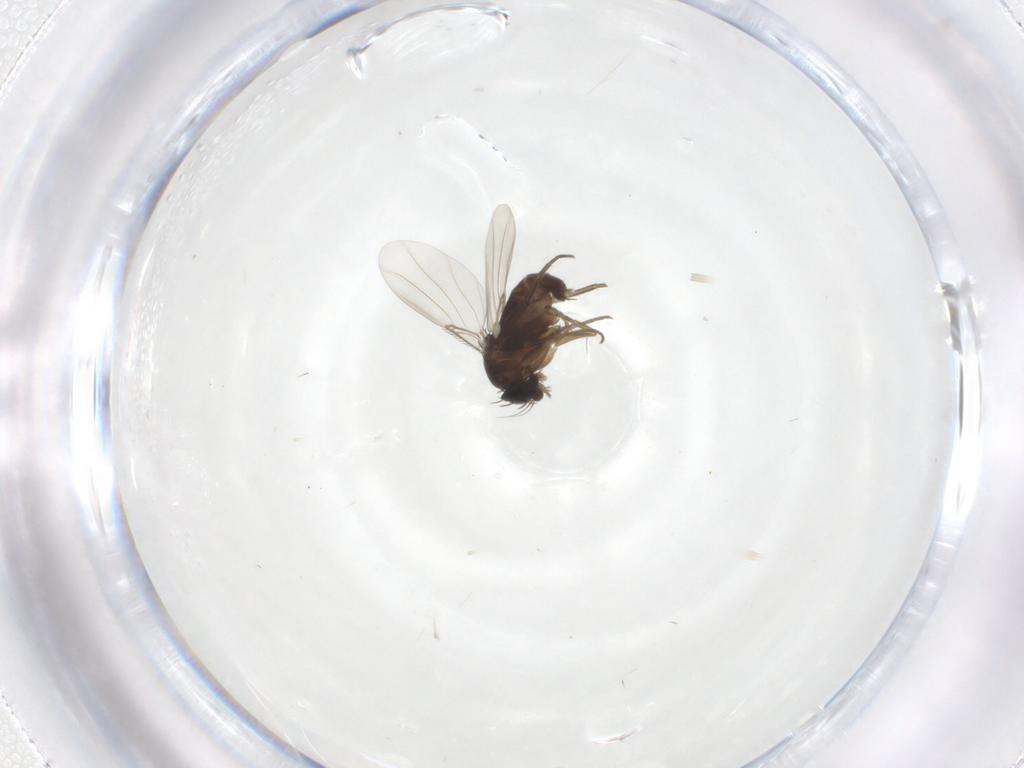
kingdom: Animalia
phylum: Arthropoda
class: Insecta
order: Diptera
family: Phoridae
